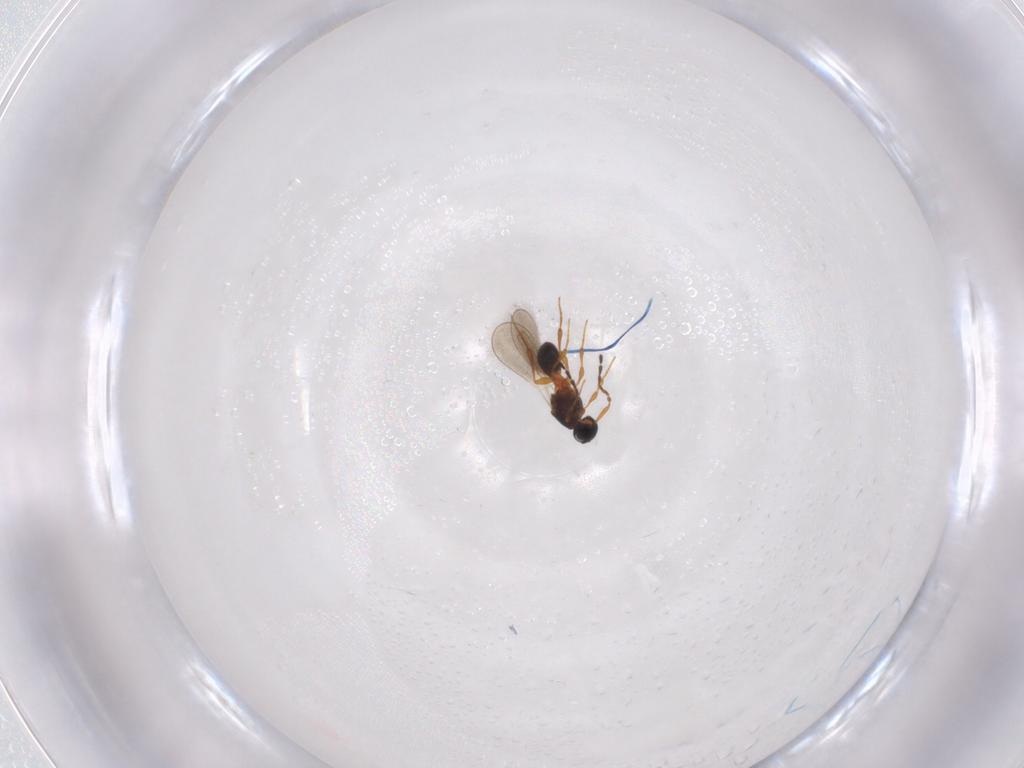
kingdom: Animalia
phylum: Arthropoda
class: Insecta
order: Hymenoptera
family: Platygastridae
